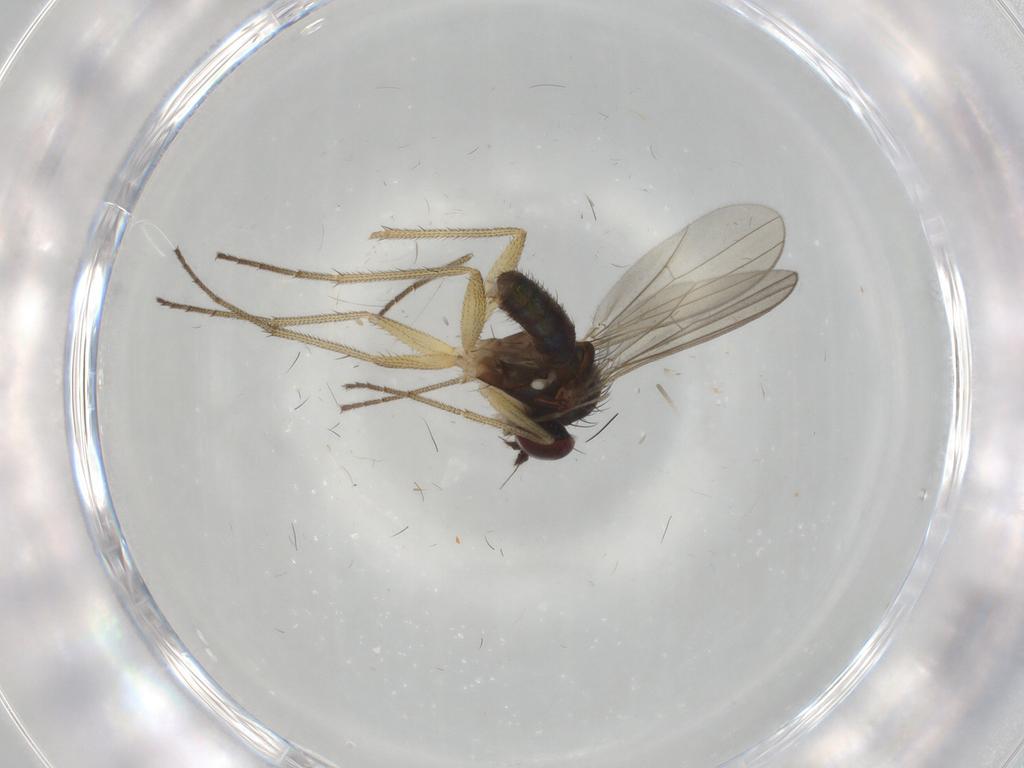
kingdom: Animalia
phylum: Arthropoda
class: Insecta
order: Diptera
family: Dolichopodidae
